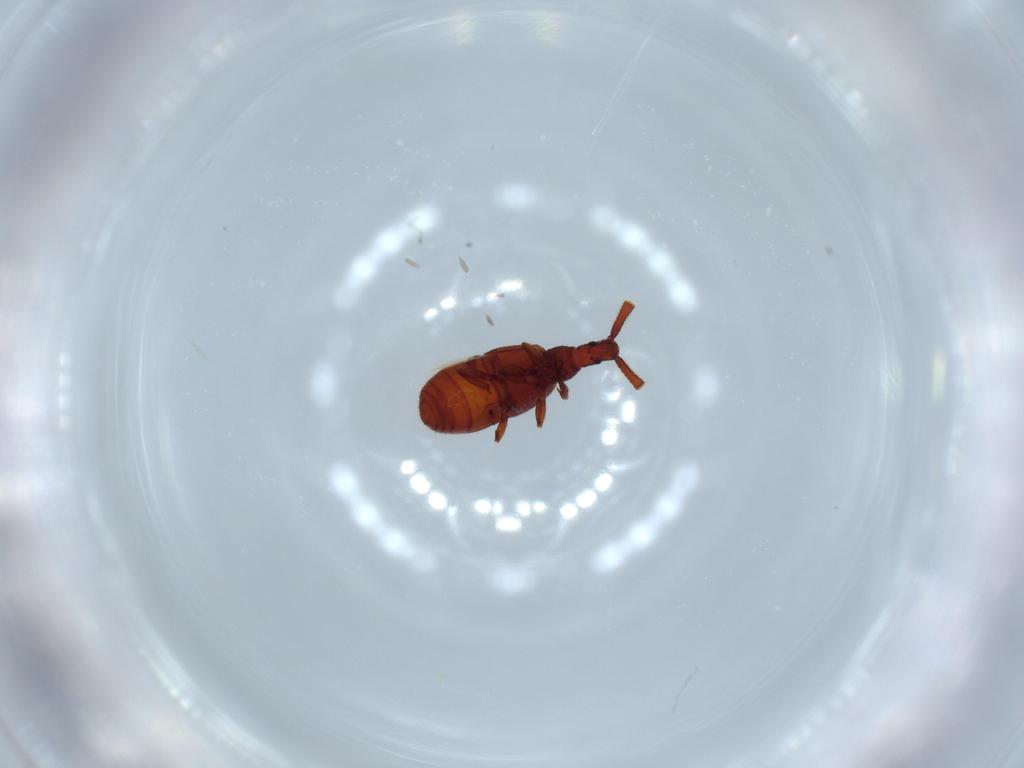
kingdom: Animalia
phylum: Arthropoda
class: Insecta
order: Coleoptera
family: Staphylinidae
